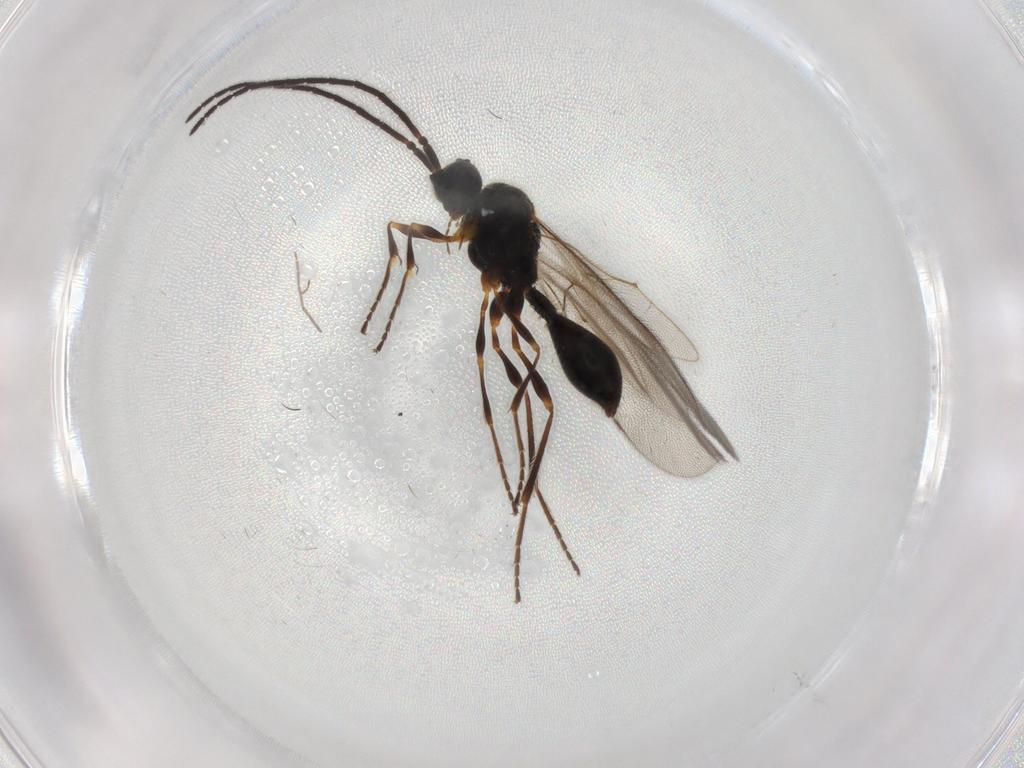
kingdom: Animalia
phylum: Arthropoda
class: Insecta
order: Hymenoptera
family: Diapriidae
